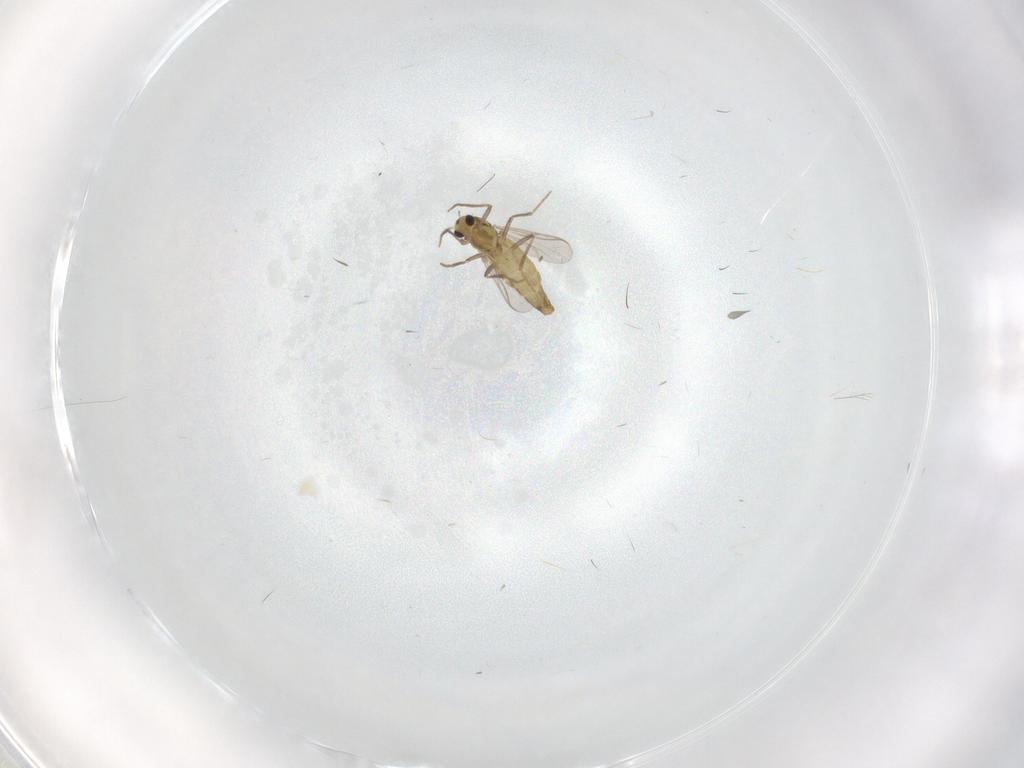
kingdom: Animalia
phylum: Arthropoda
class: Insecta
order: Diptera
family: Chironomidae
